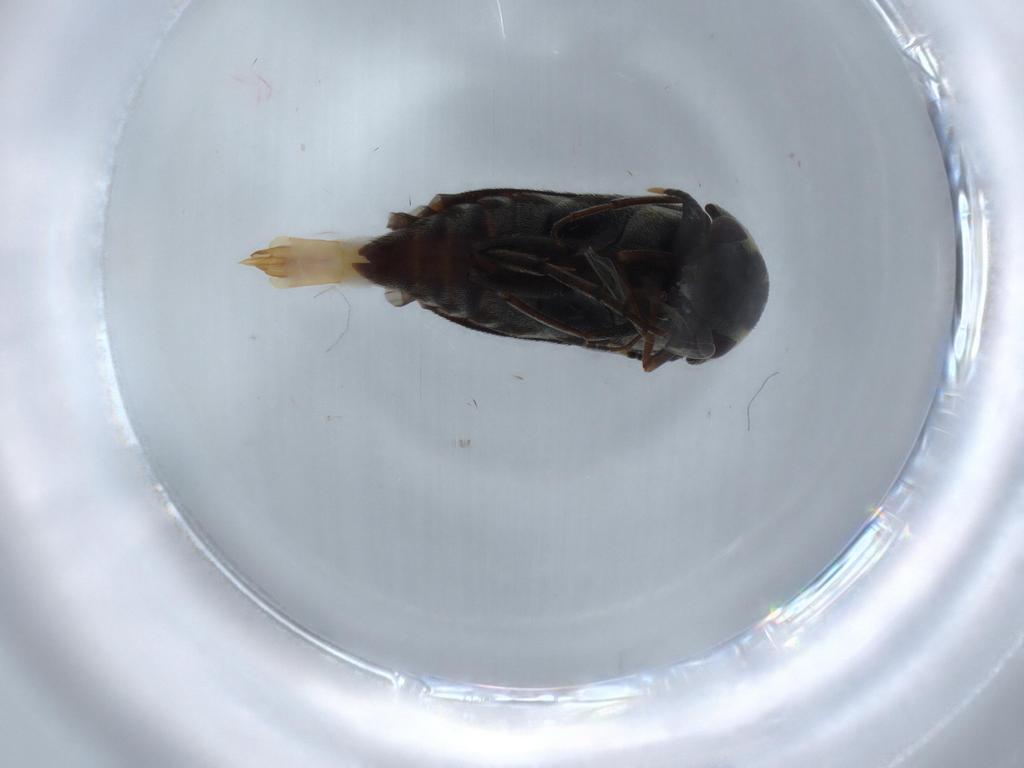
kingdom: Animalia
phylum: Arthropoda
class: Insecta
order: Coleoptera
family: Mordellidae
